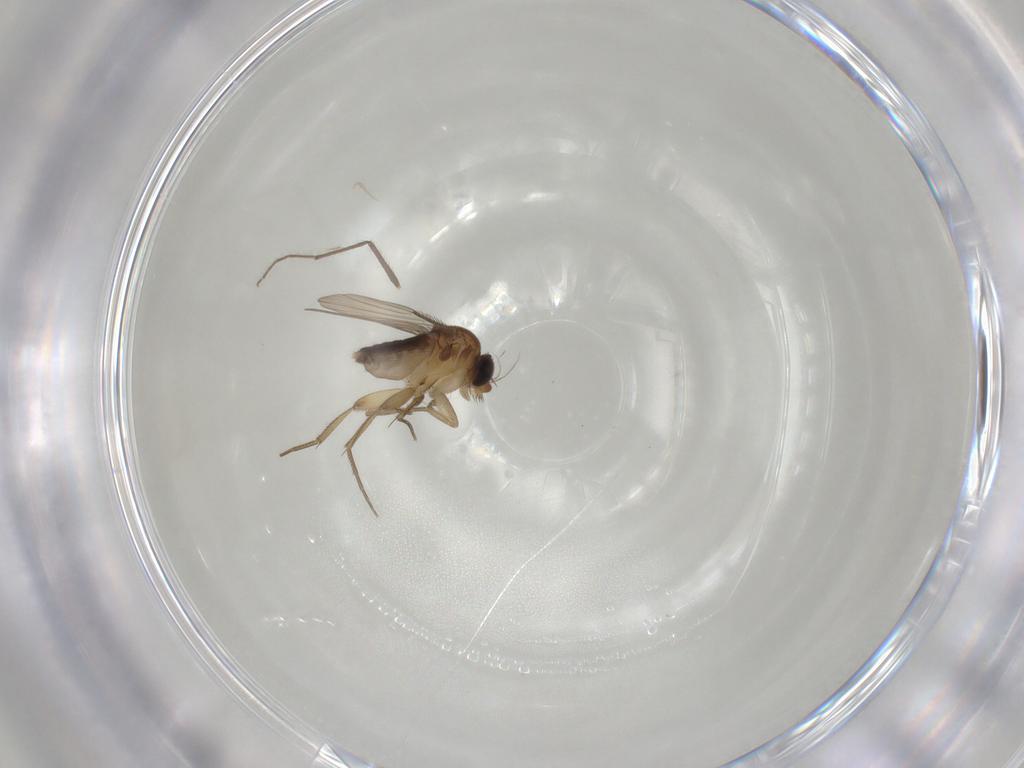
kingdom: Animalia
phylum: Arthropoda
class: Insecta
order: Diptera
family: Phoridae
